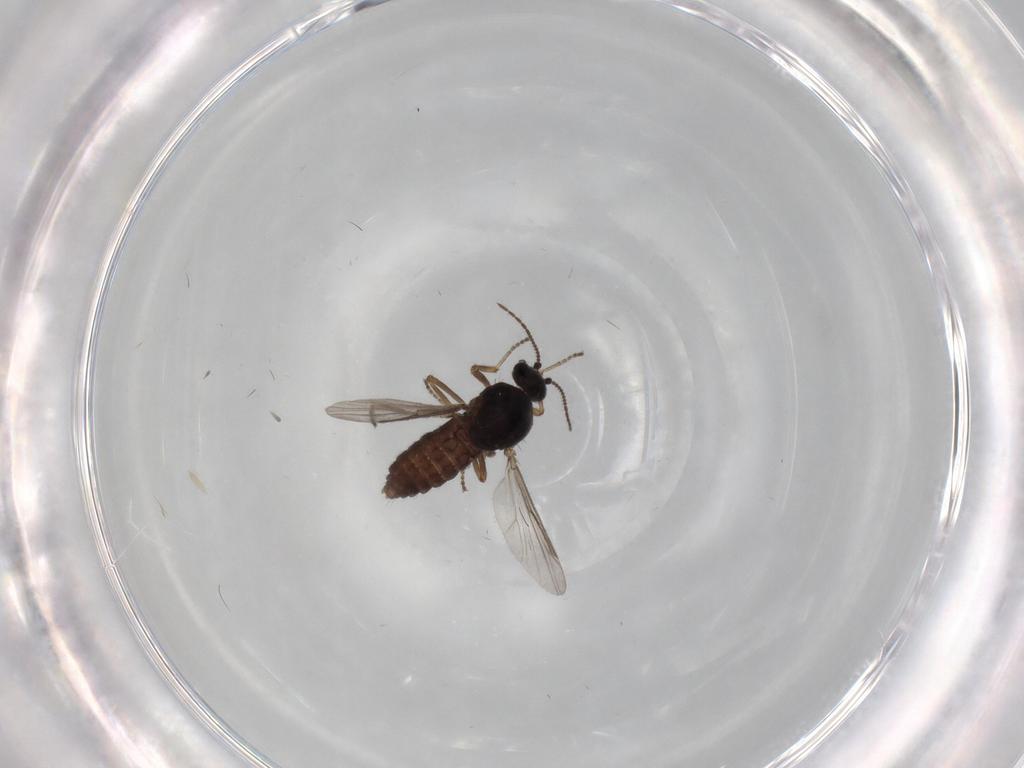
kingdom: Animalia
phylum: Arthropoda
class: Insecta
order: Diptera
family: Ceratopogonidae
